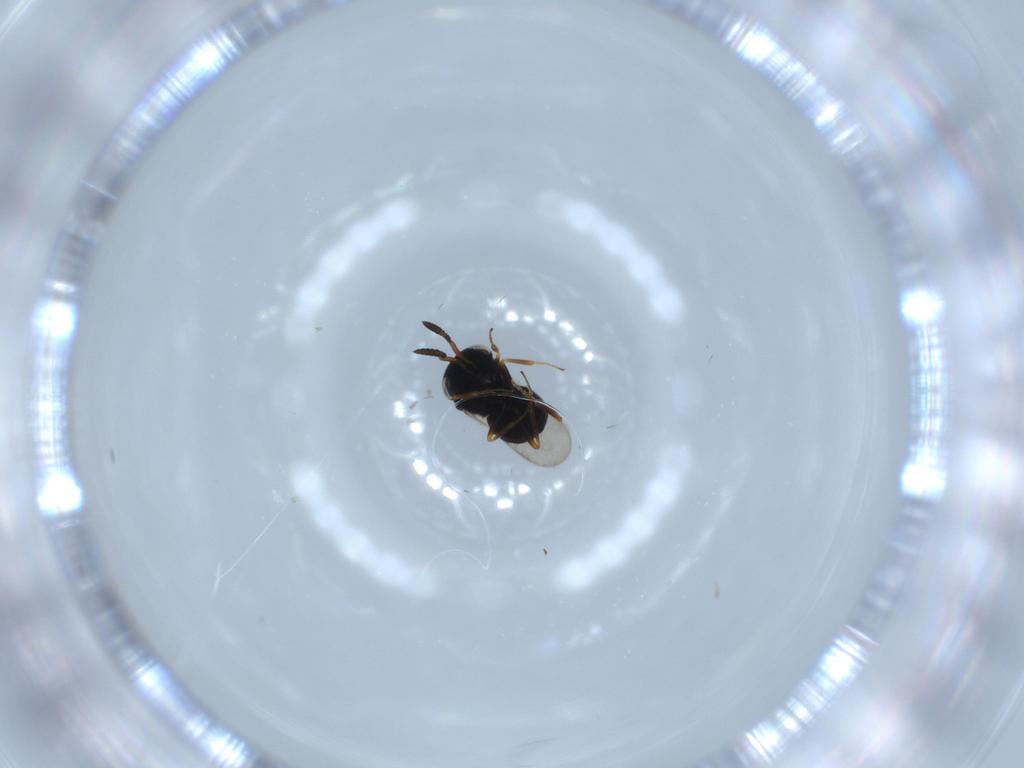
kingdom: Animalia
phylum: Arthropoda
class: Insecta
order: Hymenoptera
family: Scelionidae
